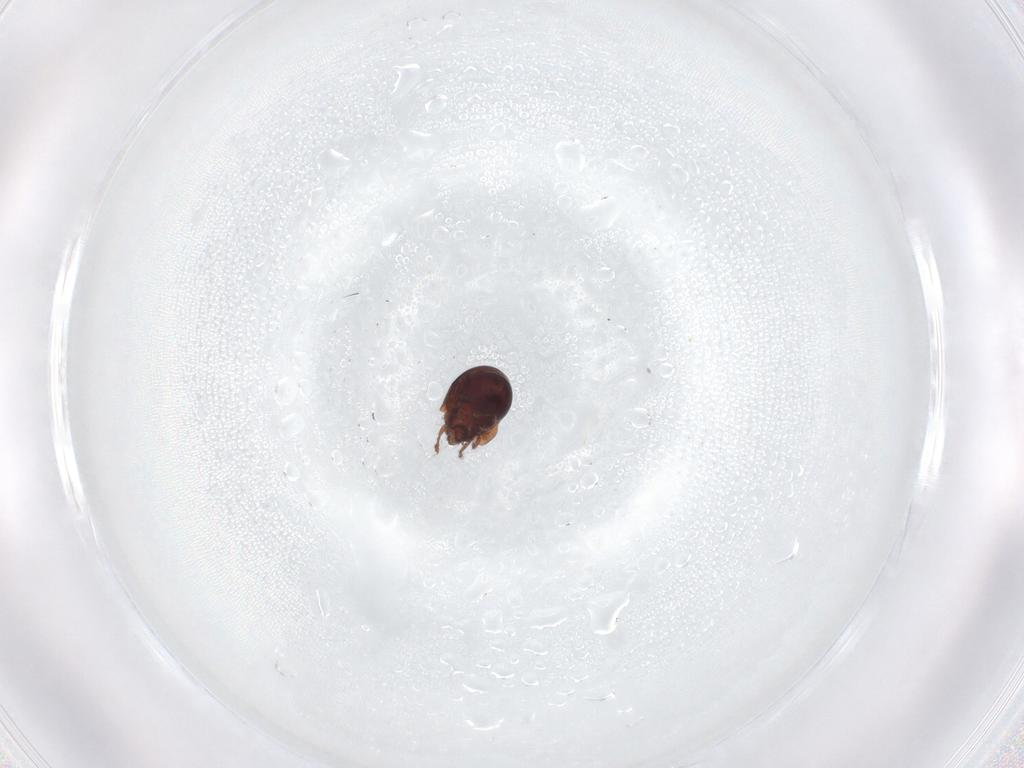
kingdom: Animalia
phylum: Arthropoda
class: Arachnida
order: Sarcoptiformes
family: Humerobatidae
